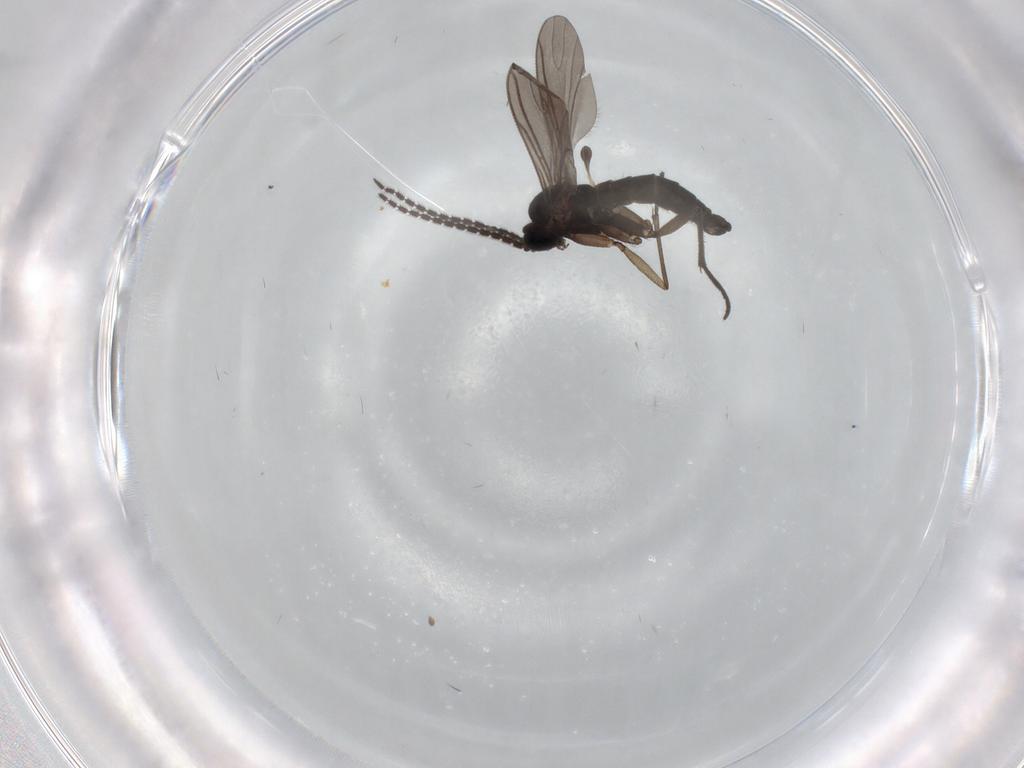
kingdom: Animalia
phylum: Arthropoda
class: Insecta
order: Diptera
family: Sciaridae
